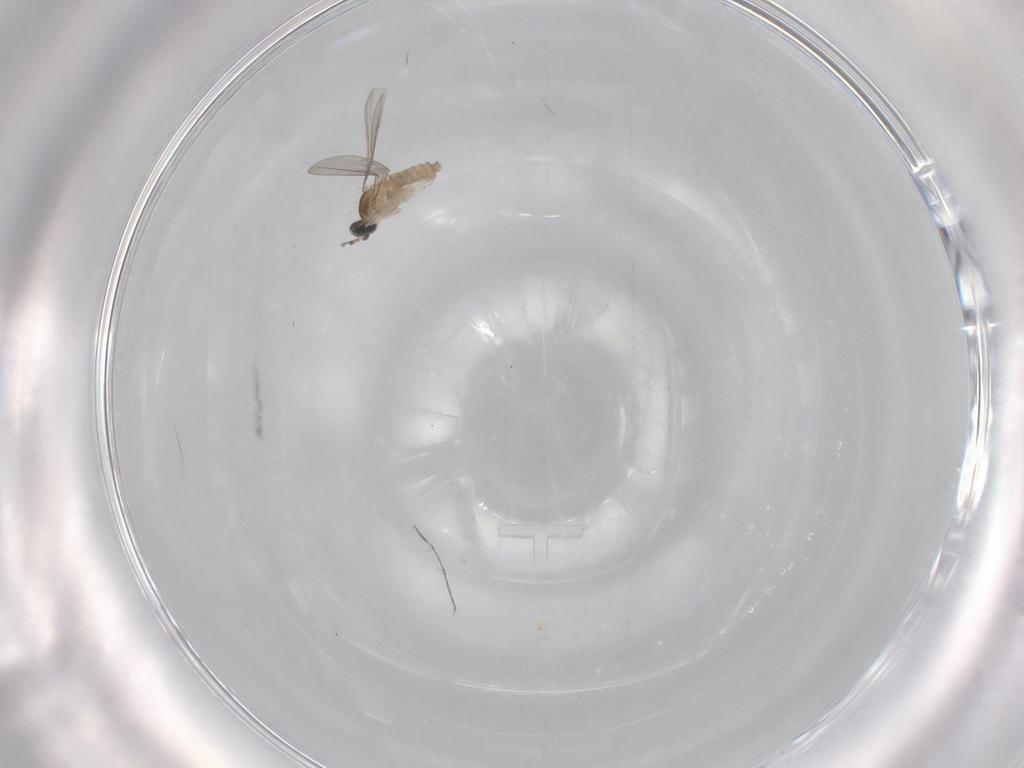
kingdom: Animalia
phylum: Arthropoda
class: Insecta
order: Diptera
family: Cecidomyiidae
